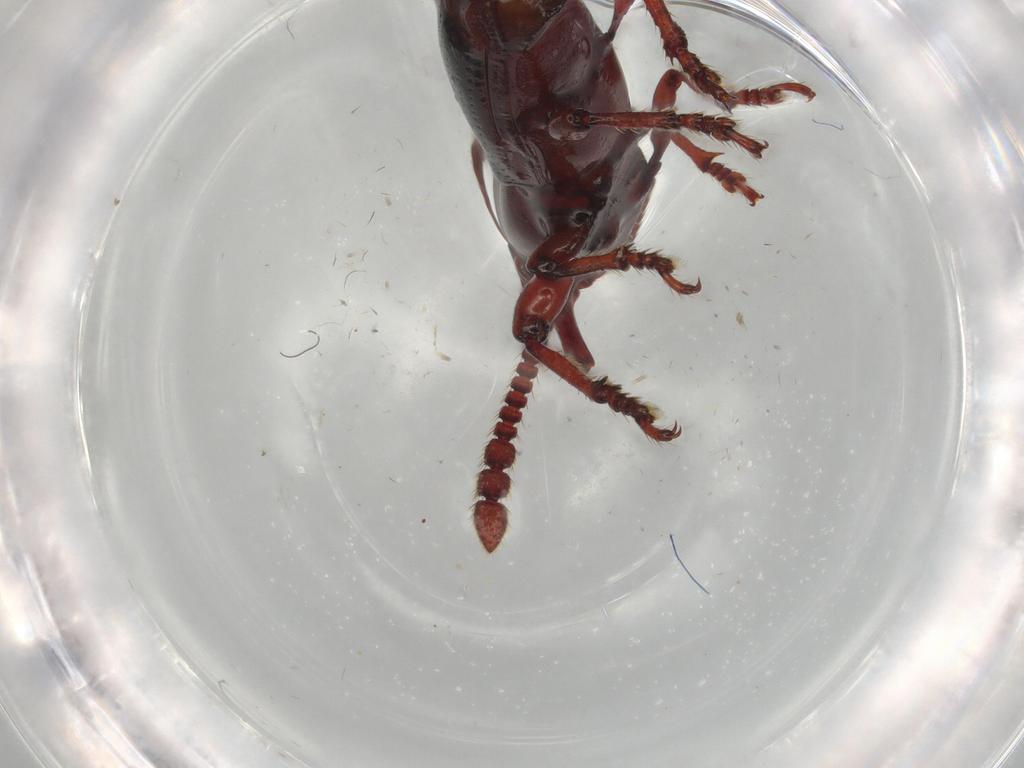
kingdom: Animalia
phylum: Arthropoda
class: Insecta
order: Coleoptera
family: Brentidae
